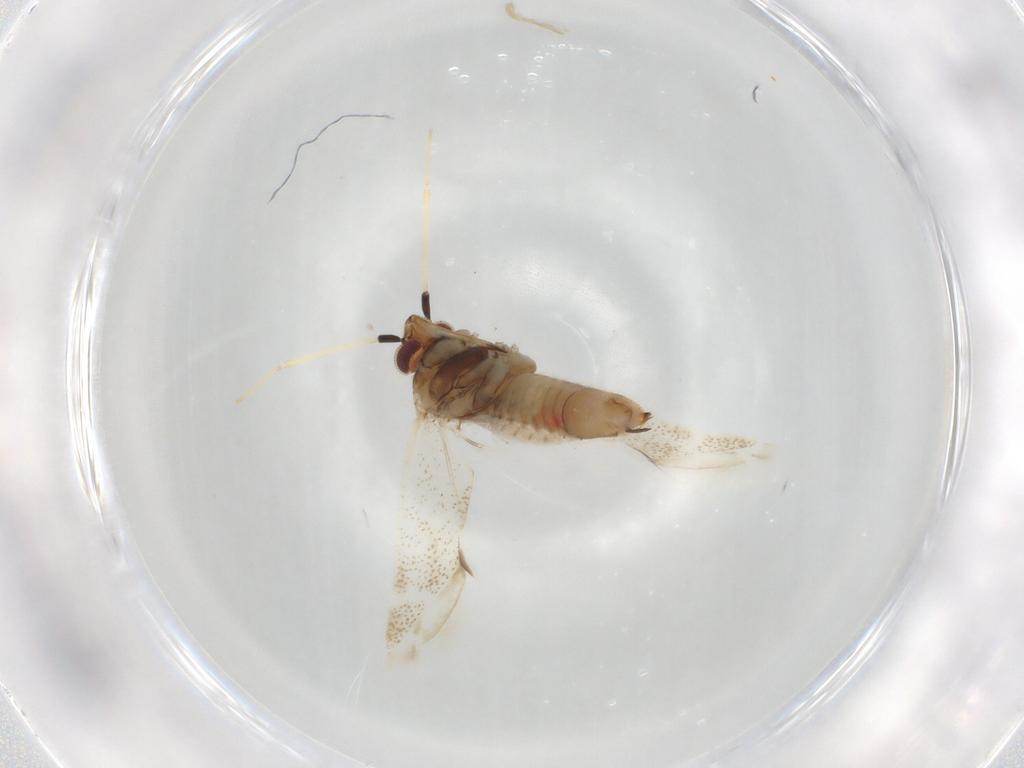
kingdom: Animalia
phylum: Arthropoda
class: Insecta
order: Hemiptera
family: Miridae
